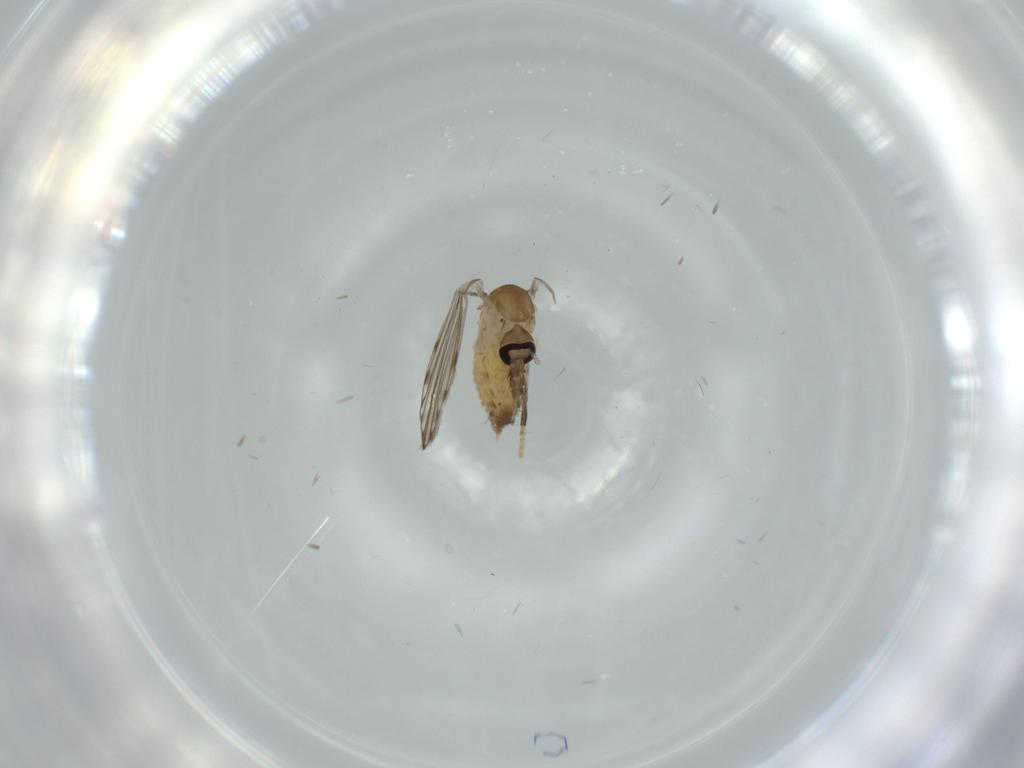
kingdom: Animalia
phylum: Arthropoda
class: Insecta
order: Diptera
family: Psychodidae
